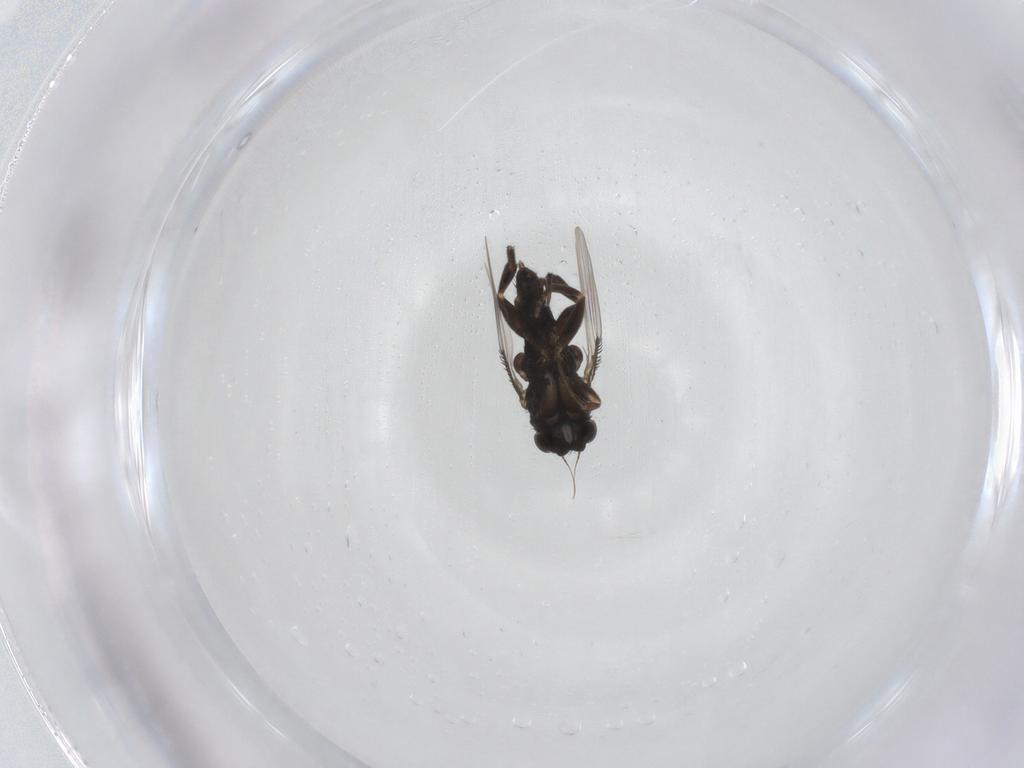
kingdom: Animalia
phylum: Arthropoda
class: Insecta
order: Diptera
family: Phoridae
